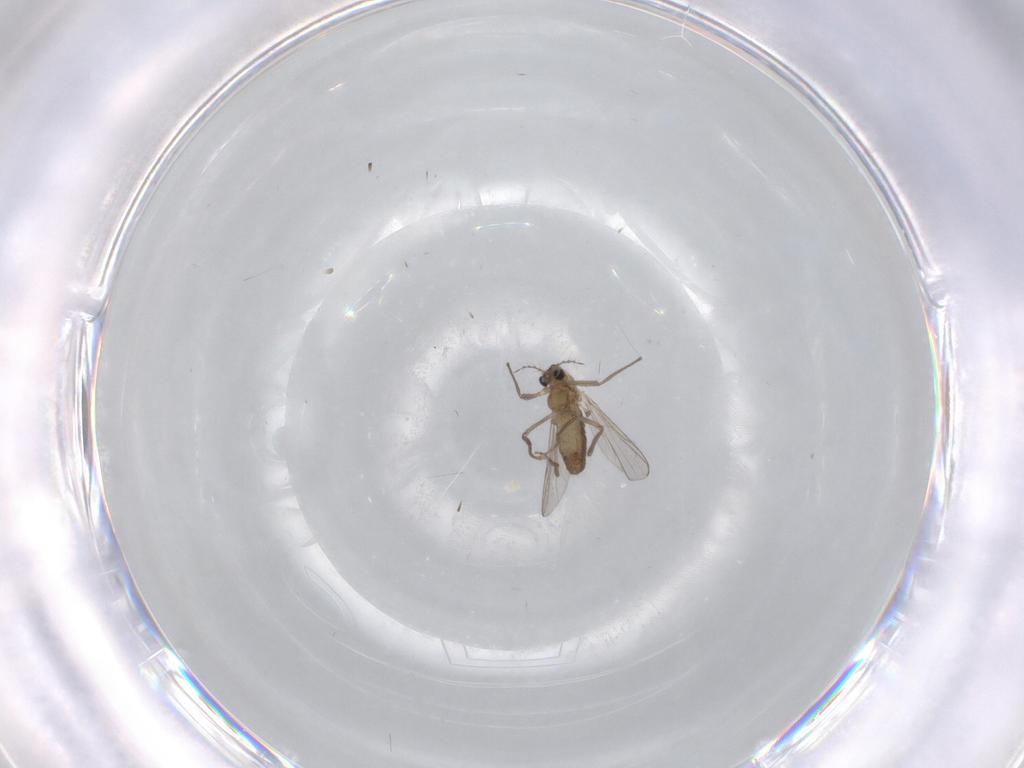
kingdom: Animalia
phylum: Arthropoda
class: Insecta
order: Diptera
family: Chironomidae
